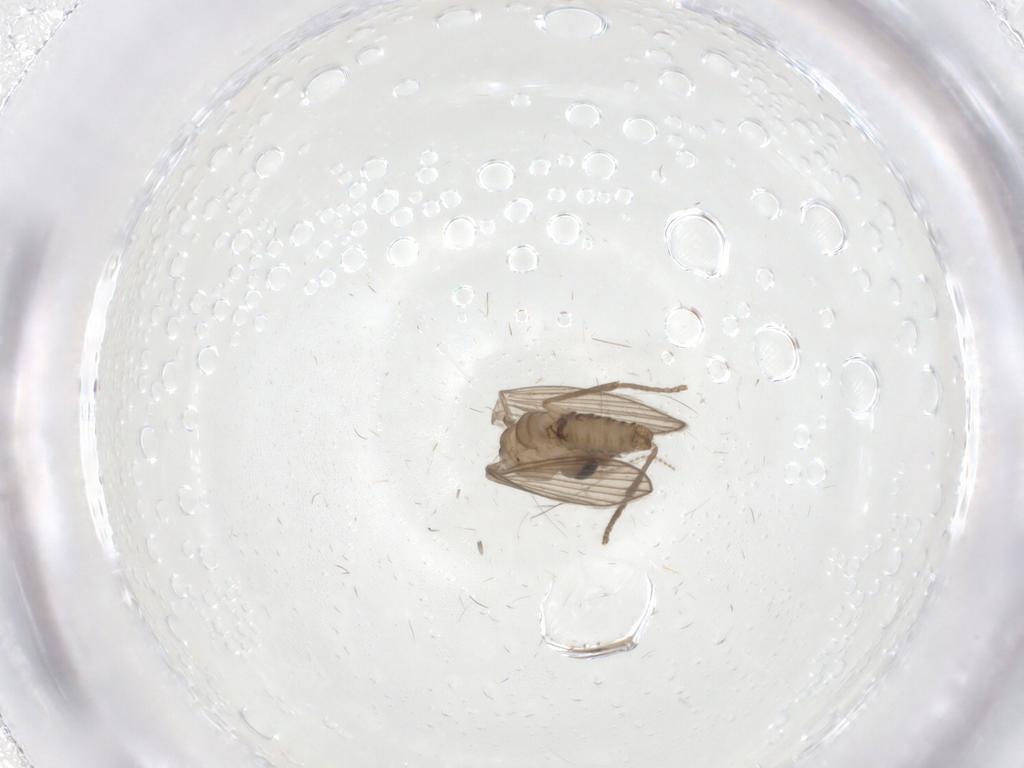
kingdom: Animalia
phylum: Arthropoda
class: Insecta
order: Diptera
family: Psychodidae
